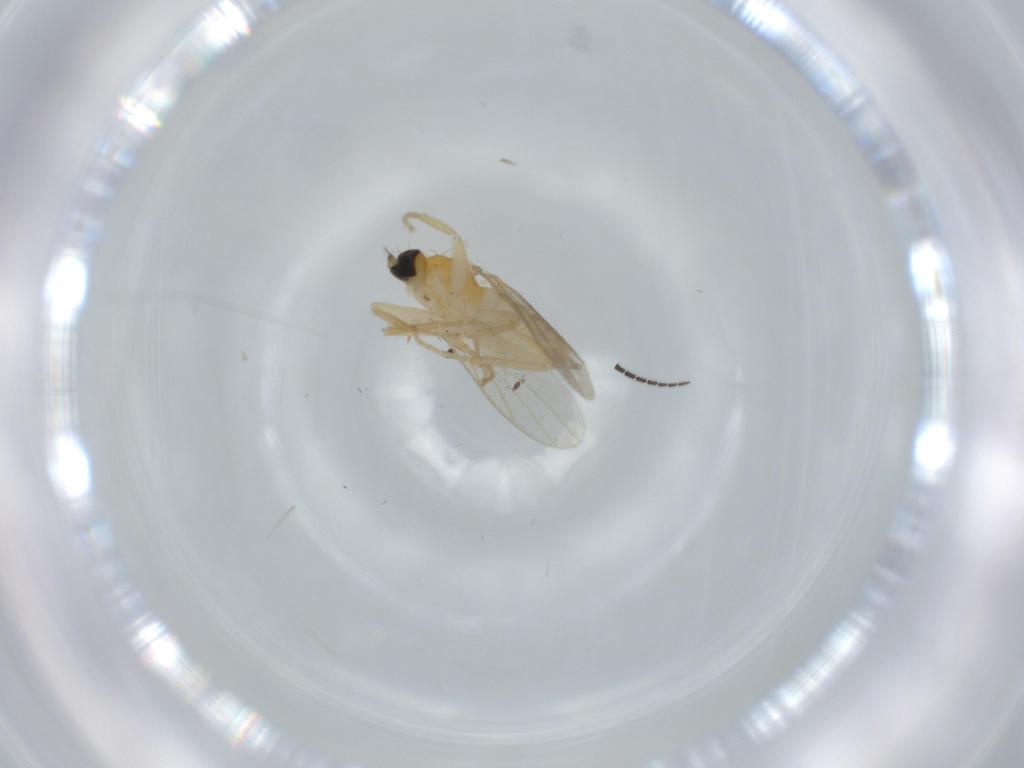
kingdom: Animalia
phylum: Arthropoda
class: Insecta
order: Diptera
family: Hybotidae
